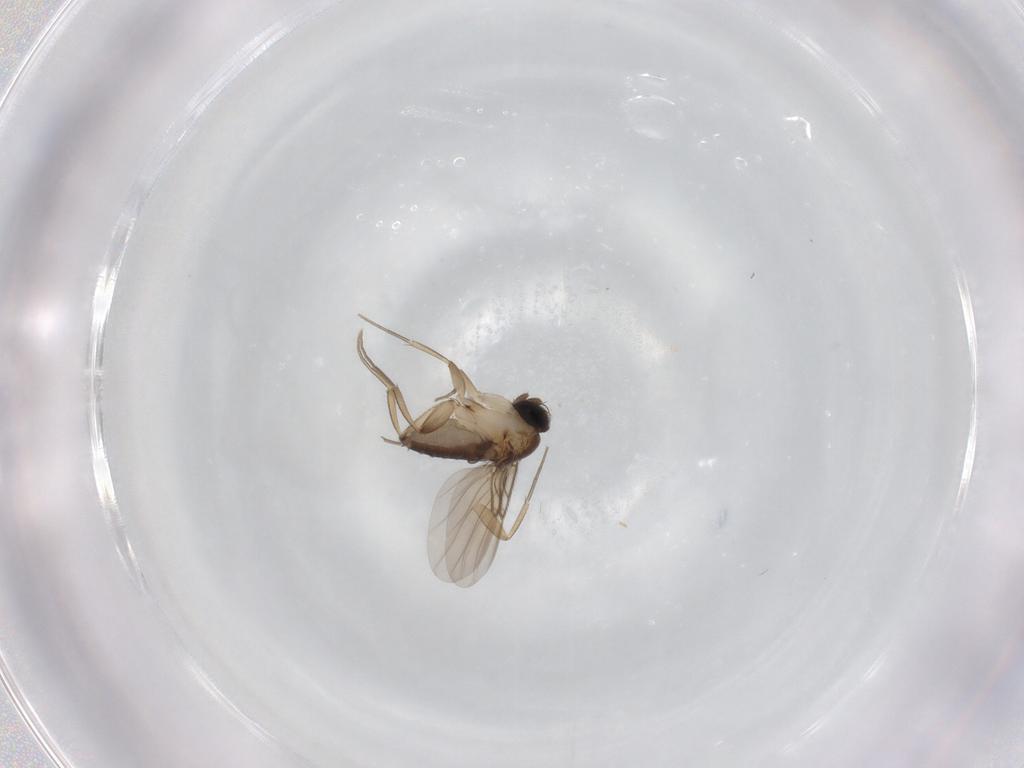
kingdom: Animalia
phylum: Arthropoda
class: Insecta
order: Diptera
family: Phoridae
